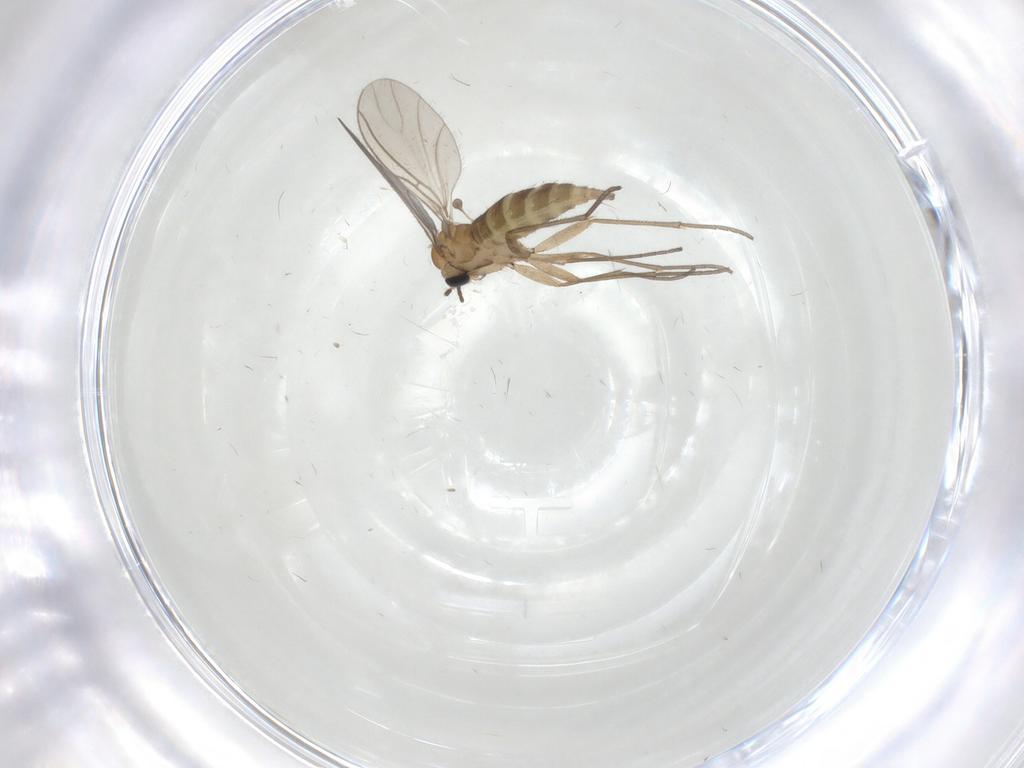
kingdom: Animalia
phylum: Arthropoda
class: Insecta
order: Diptera
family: Sciaridae
